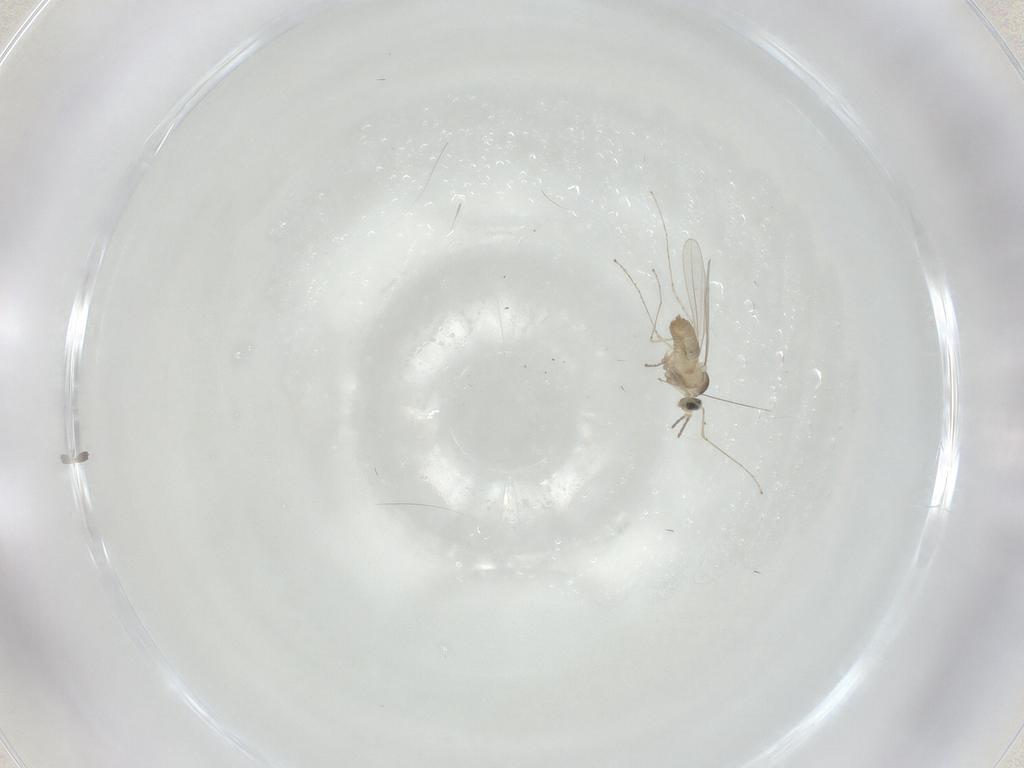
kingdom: Animalia
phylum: Arthropoda
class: Insecta
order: Diptera
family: Cecidomyiidae
